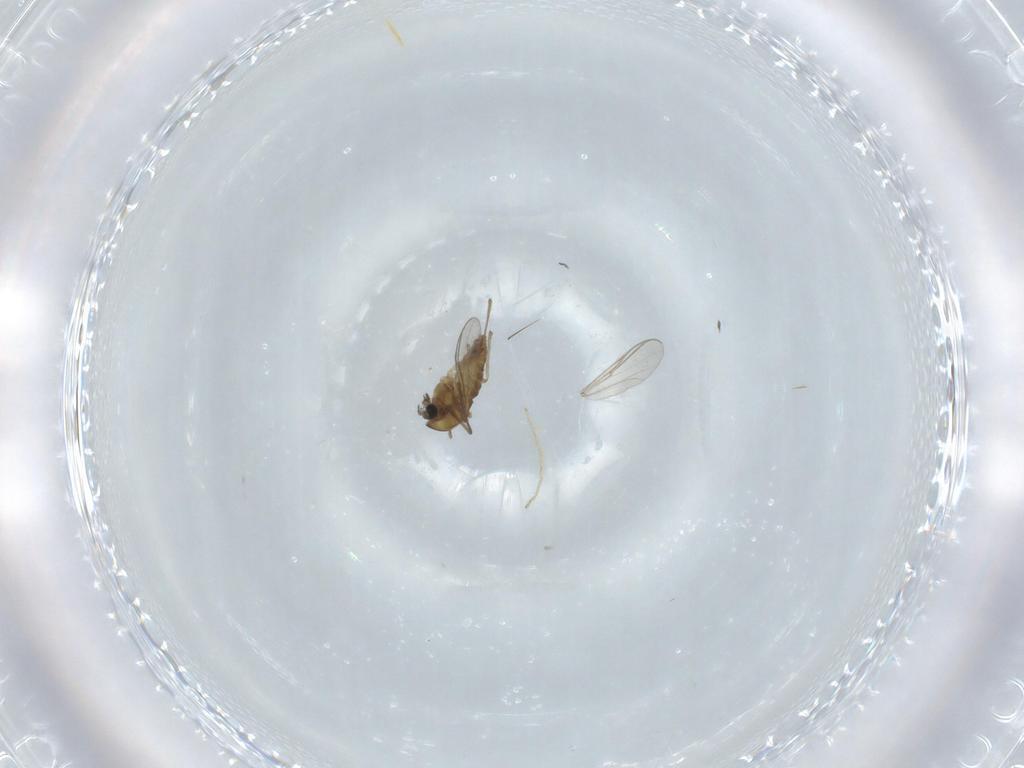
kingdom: Animalia
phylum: Arthropoda
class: Insecta
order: Diptera
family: Chironomidae
